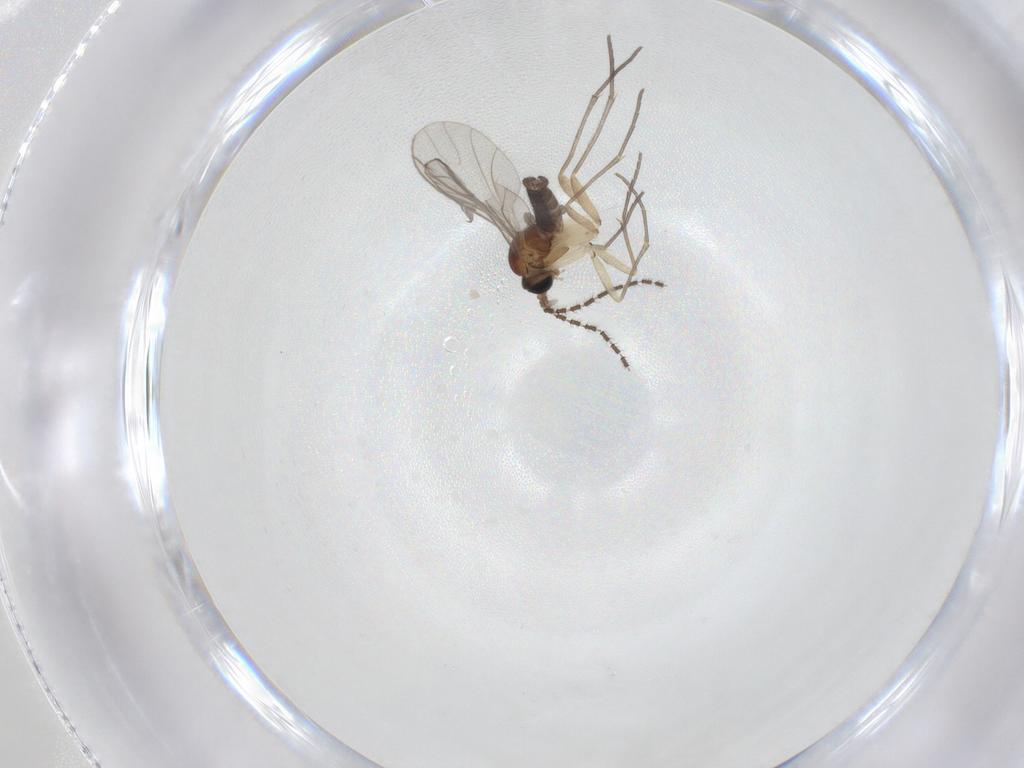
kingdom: Animalia
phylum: Arthropoda
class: Insecta
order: Diptera
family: Sciaridae
